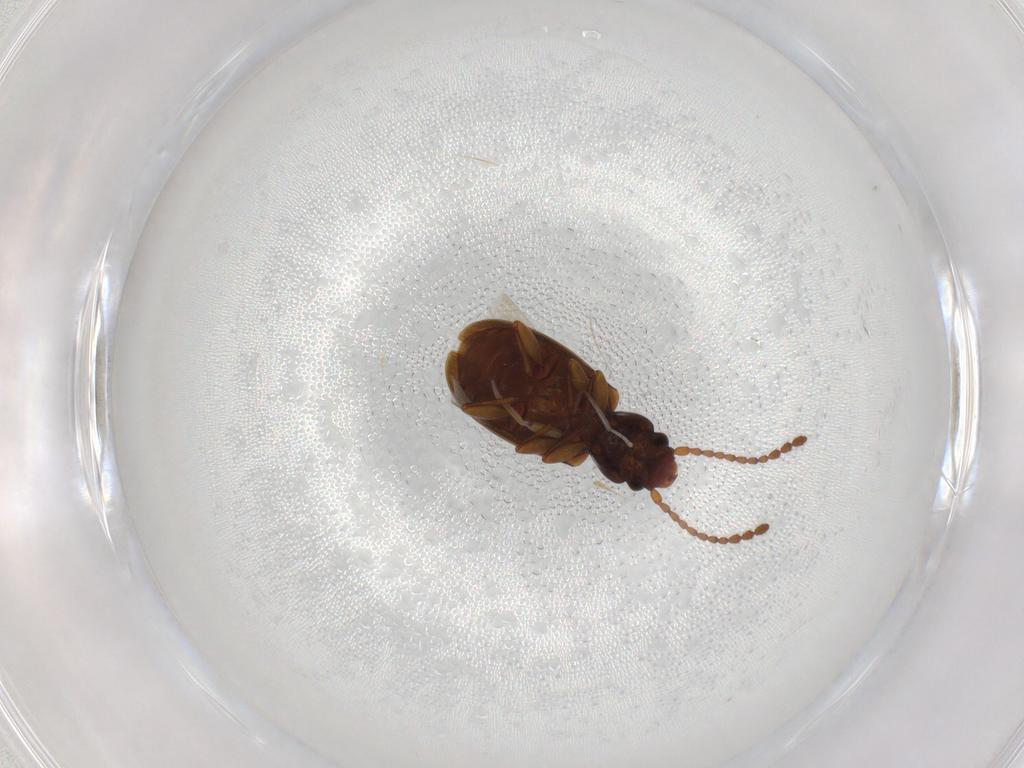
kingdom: Animalia
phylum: Arthropoda
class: Insecta
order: Coleoptera
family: Laemophloeidae
